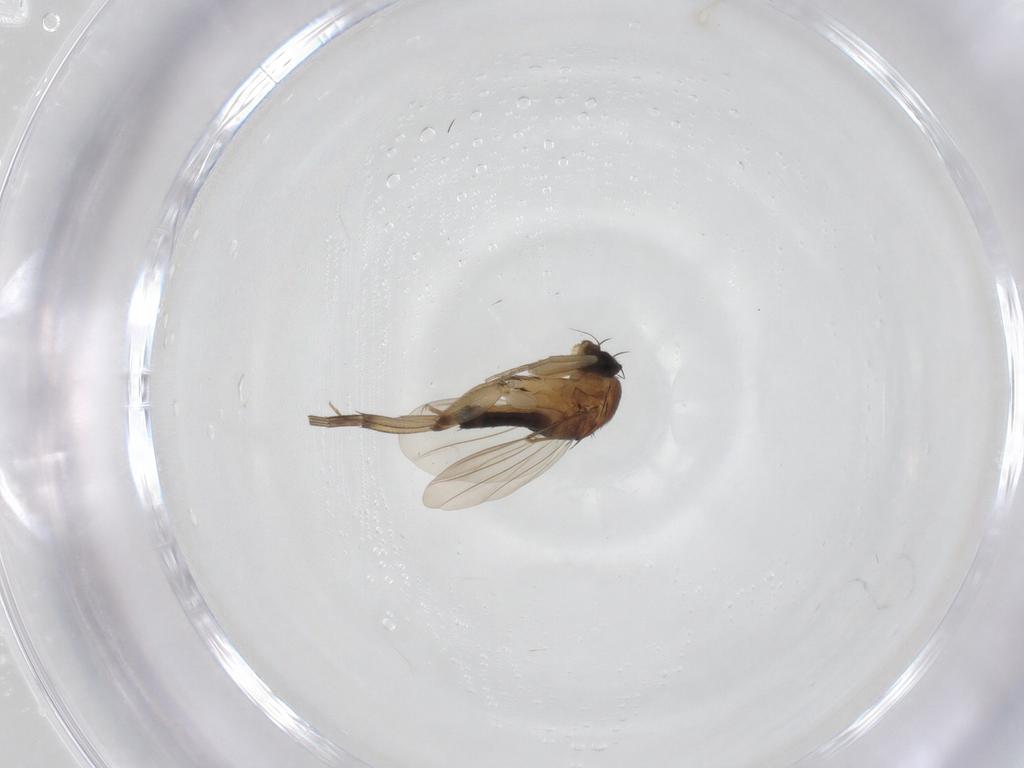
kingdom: Animalia
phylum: Arthropoda
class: Insecta
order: Diptera
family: Phoridae
